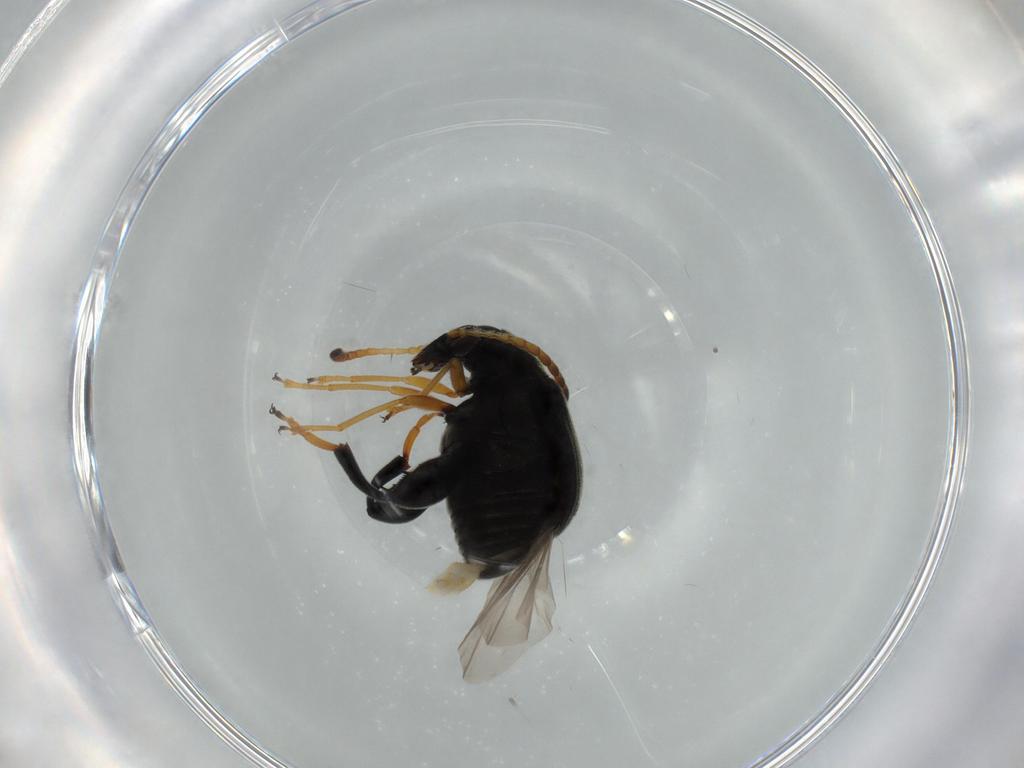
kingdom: Animalia
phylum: Arthropoda
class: Insecta
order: Coleoptera
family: Chrysomelidae
